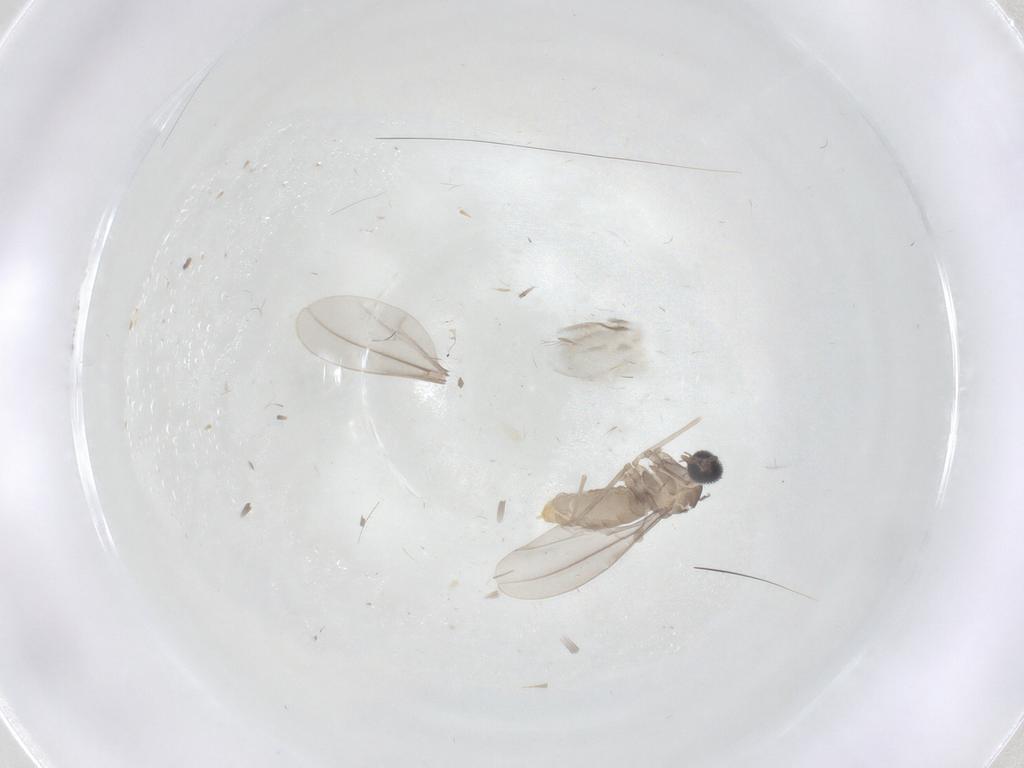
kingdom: Animalia
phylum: Arthropoda
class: Insecta
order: Diptera
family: Cecidomyiidae
